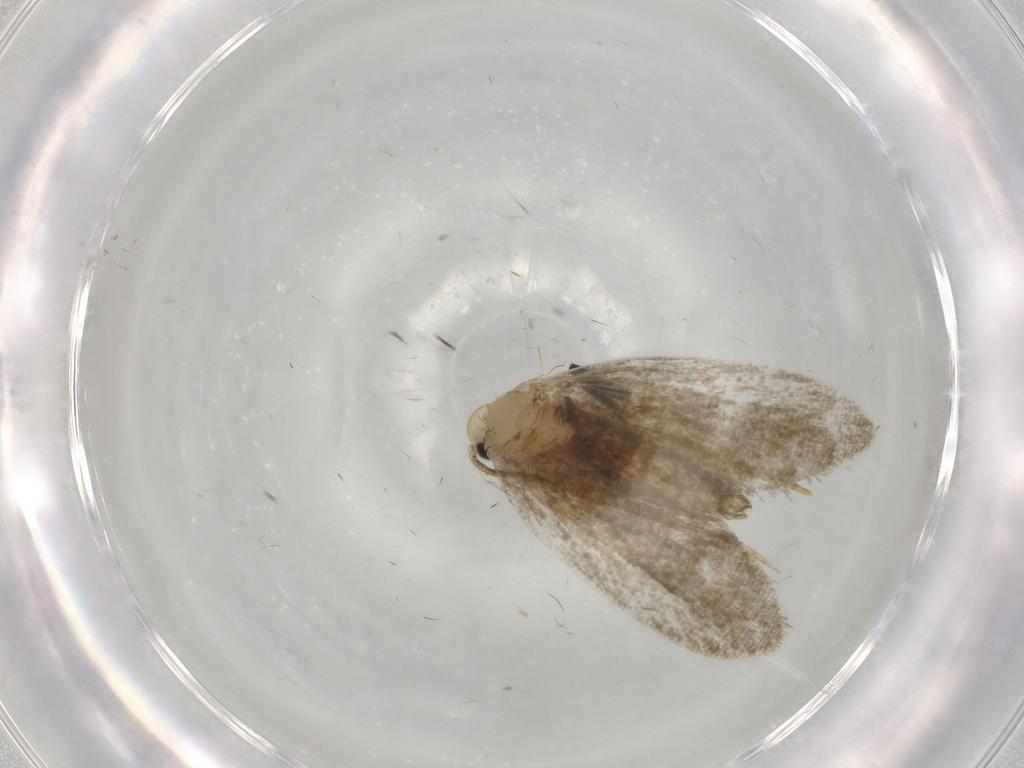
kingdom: Animalia
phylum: Arthropoda
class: Insecta
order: Lepidoptera
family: Psychidae
